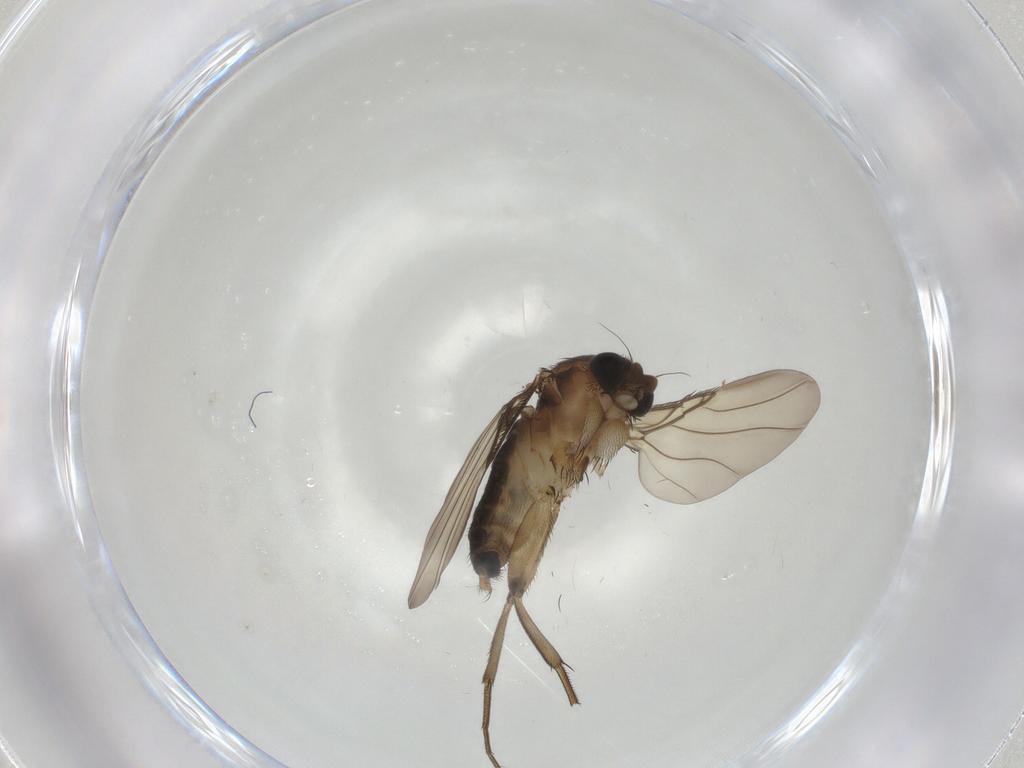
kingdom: Animalia
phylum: Arthropoda
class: Insecta
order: Diptera
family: Phoridae
